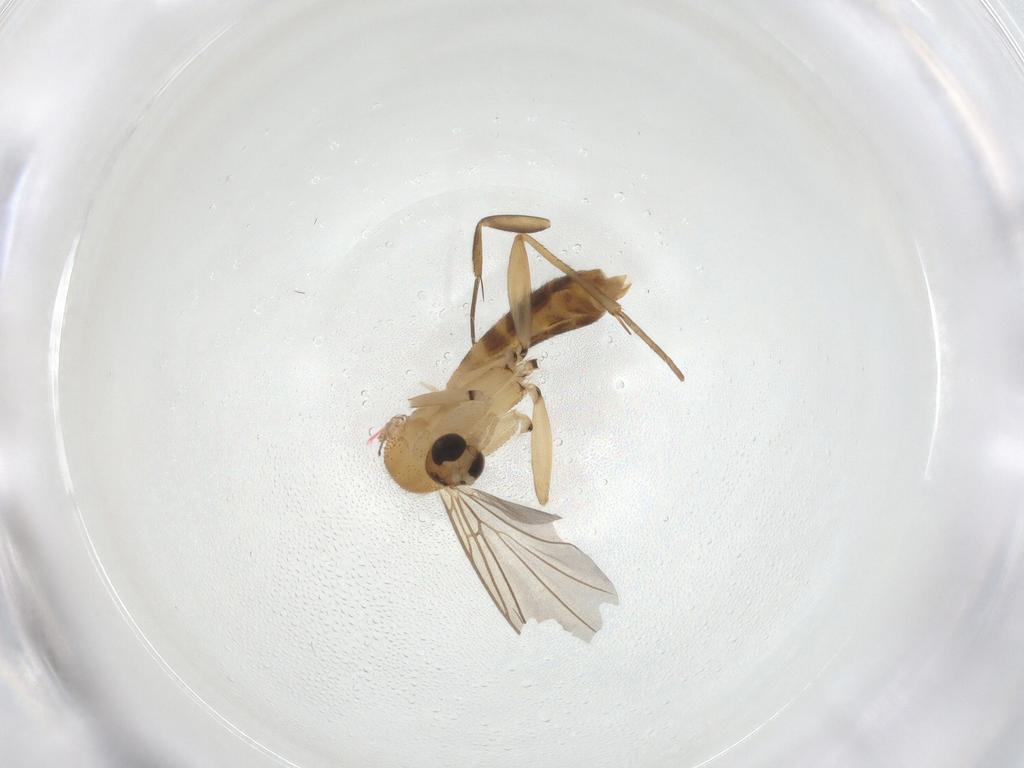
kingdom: Animalia
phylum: Arthropoda
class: Insecta
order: Diptera
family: Mycetophilidae
